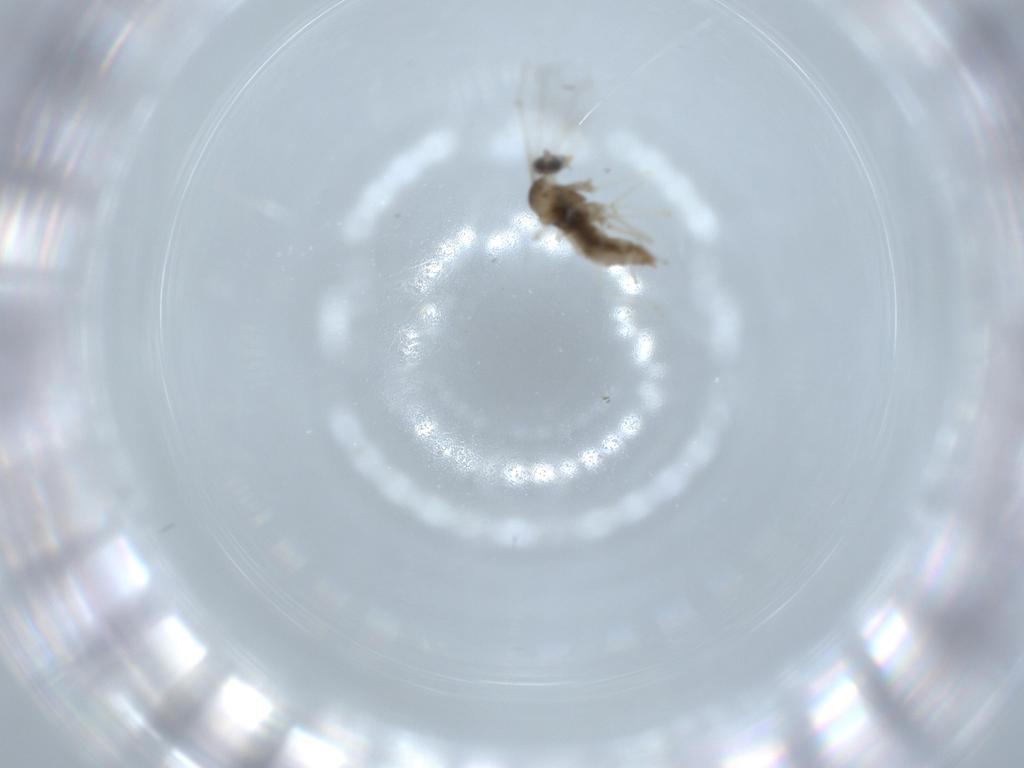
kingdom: Animalia
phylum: Arthropoda
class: Insecta
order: Diptera
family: Cecidomyiidae
